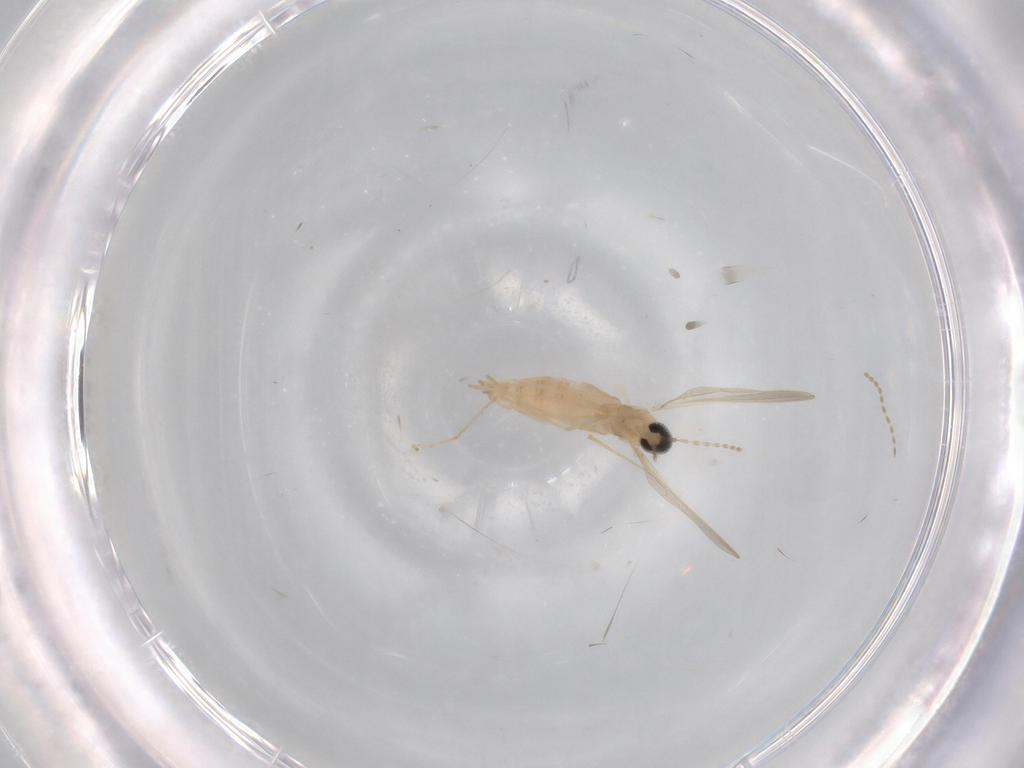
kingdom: Animalia
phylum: Arthropoda
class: Insecta
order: Diptera
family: Cecidomyiidae
